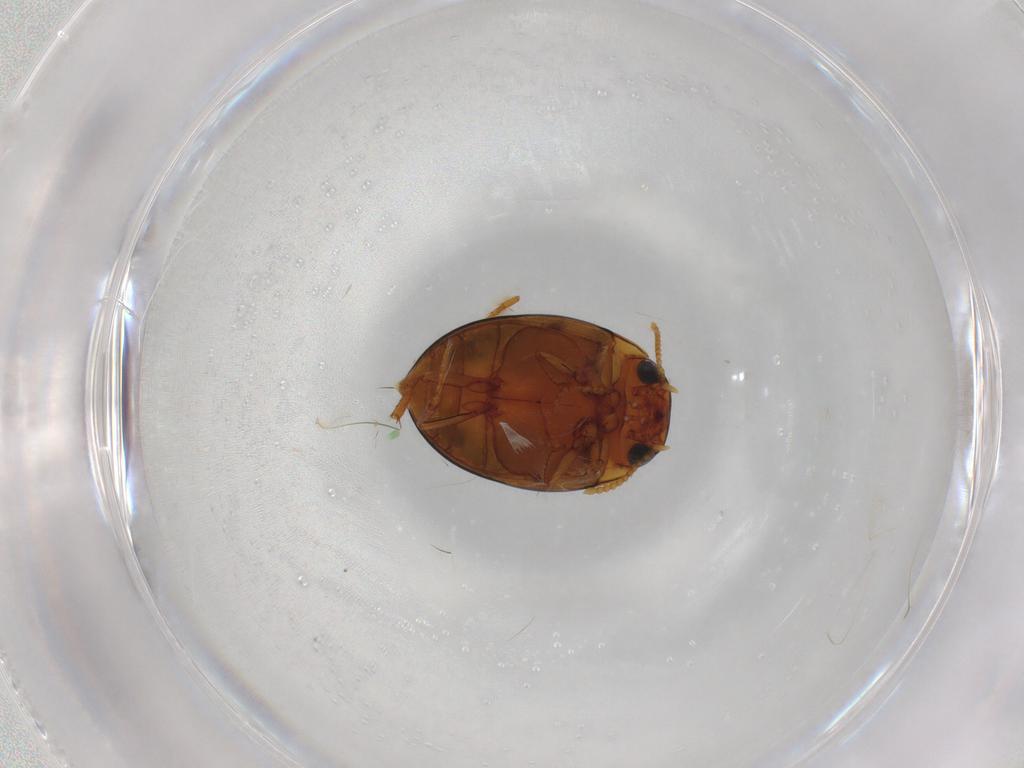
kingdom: Animalia
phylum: Arthropoda
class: Insecta
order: Coleoptera
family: Dytiscidae
